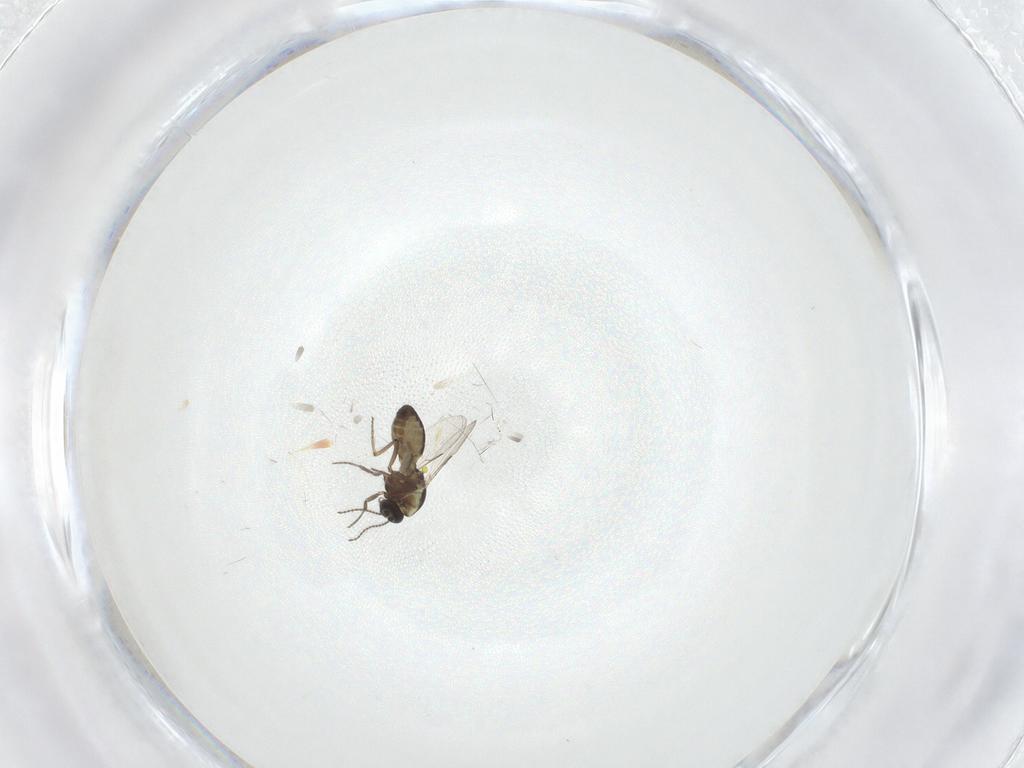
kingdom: Animalia
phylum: Arthropoda
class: Insecta
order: Diptera
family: Ceratopogonidae
